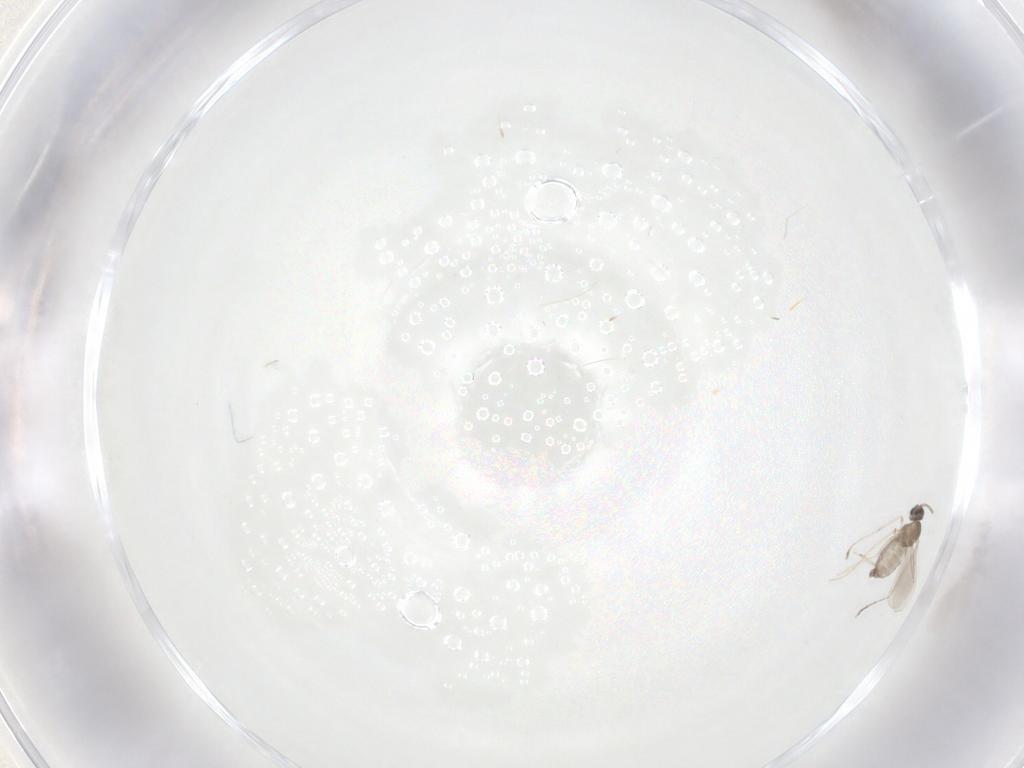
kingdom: Animalia
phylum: Arthropoda
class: Insecta
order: Diptera
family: Cecidomyiidae
